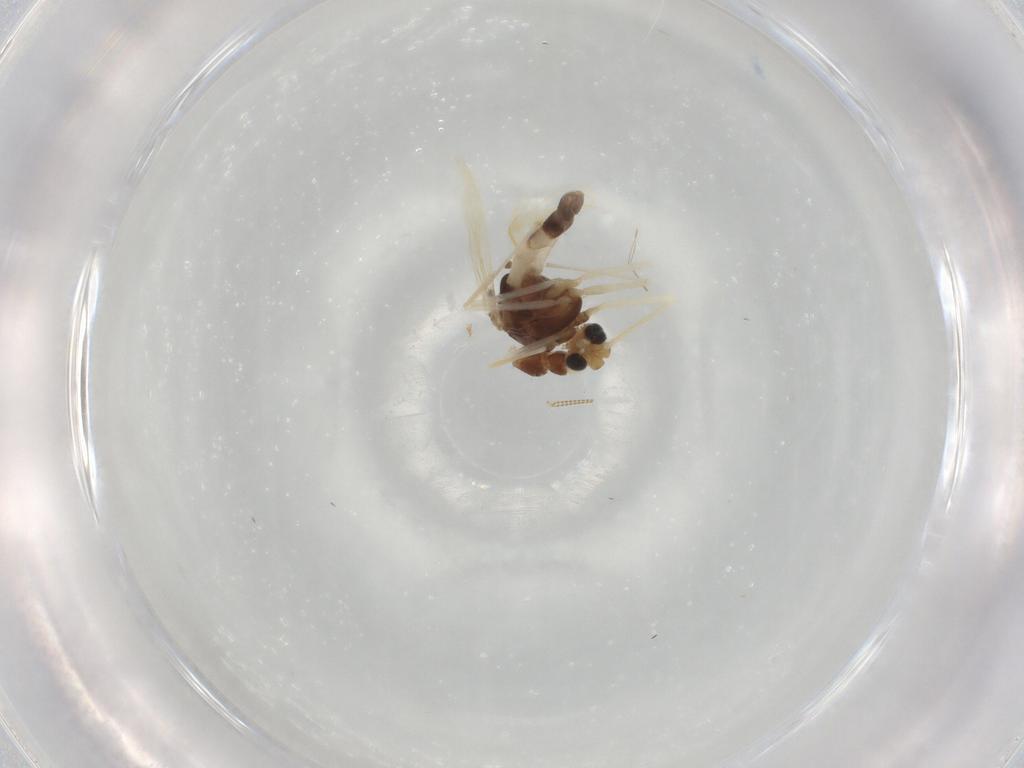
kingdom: Animalia
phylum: Arthropoda
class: Insecta
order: Diptera
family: Chironomidae
